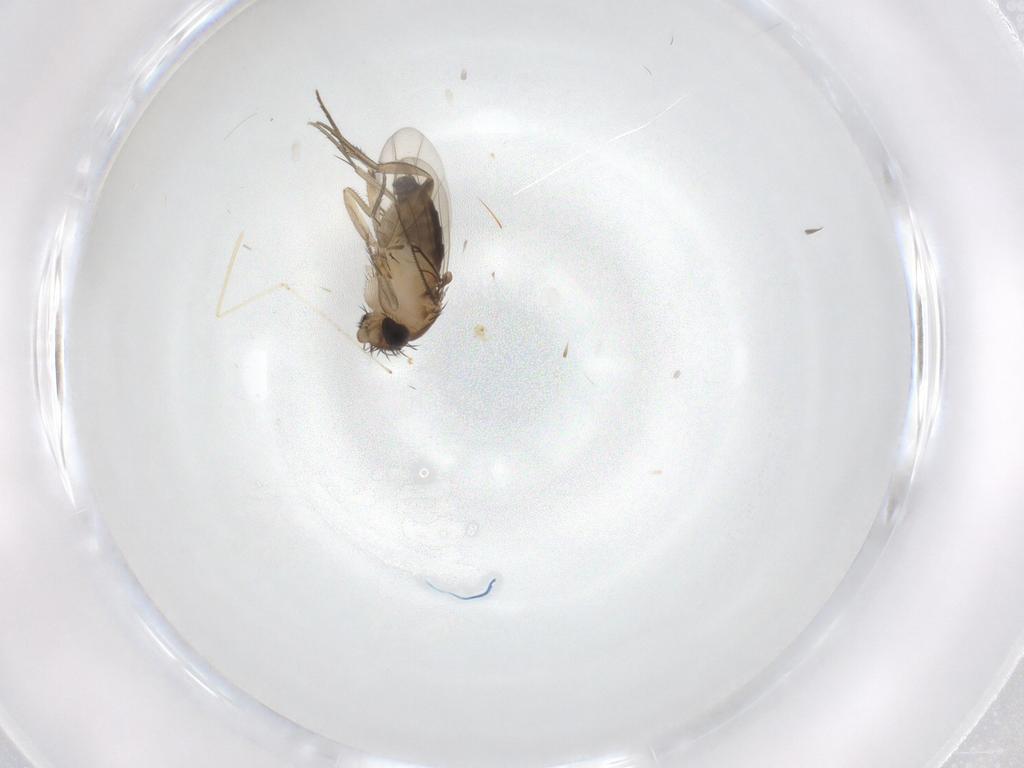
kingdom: Animalia
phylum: Arthropoda
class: Insecta
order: Diptera
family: Phoridae
